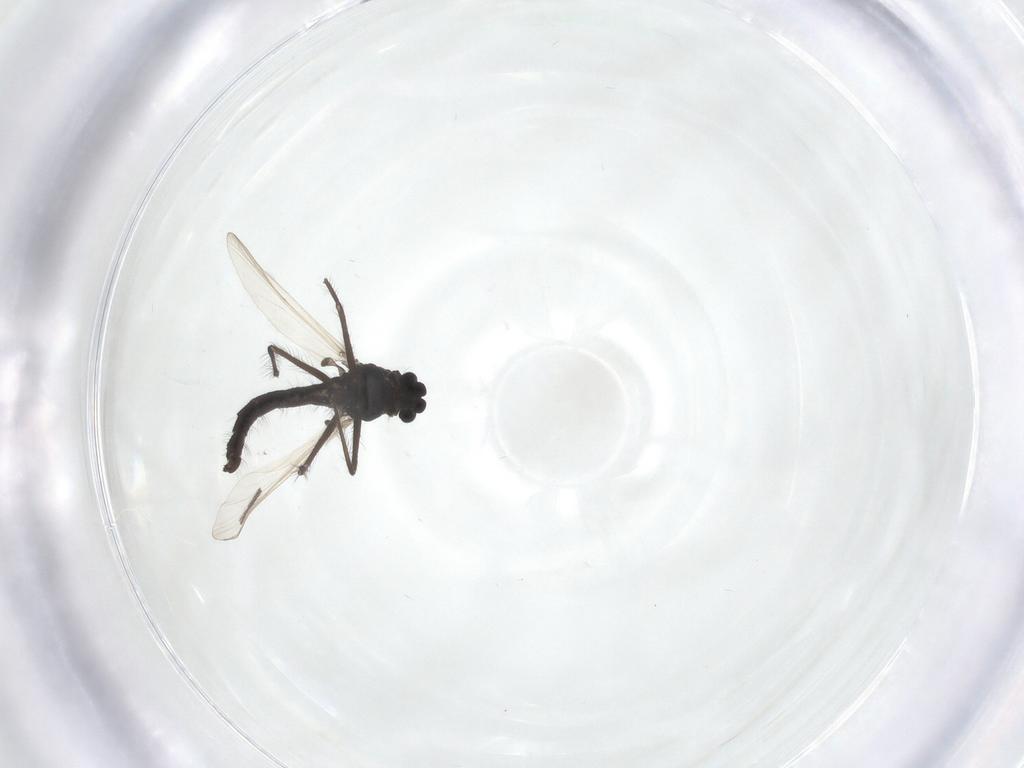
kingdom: Animalia
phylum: Arthropoda
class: Insecta
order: Diptera
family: Chironomidae
